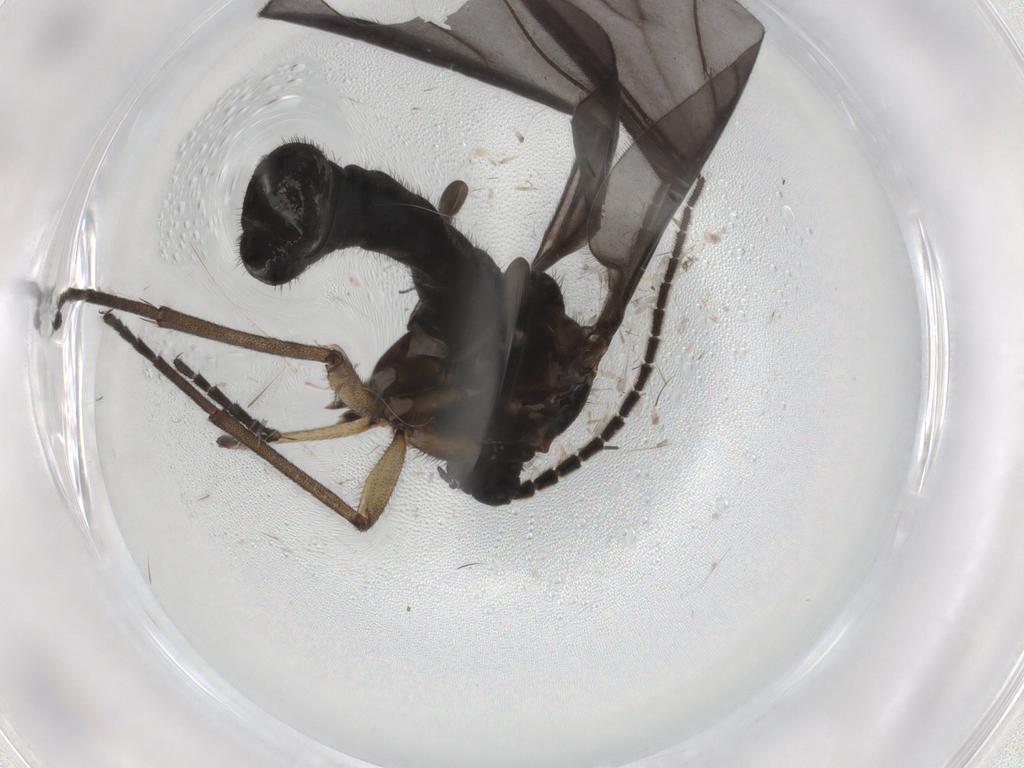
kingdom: Animalia
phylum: Arthropoda
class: Insecta
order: Diptera
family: Sciaridae
